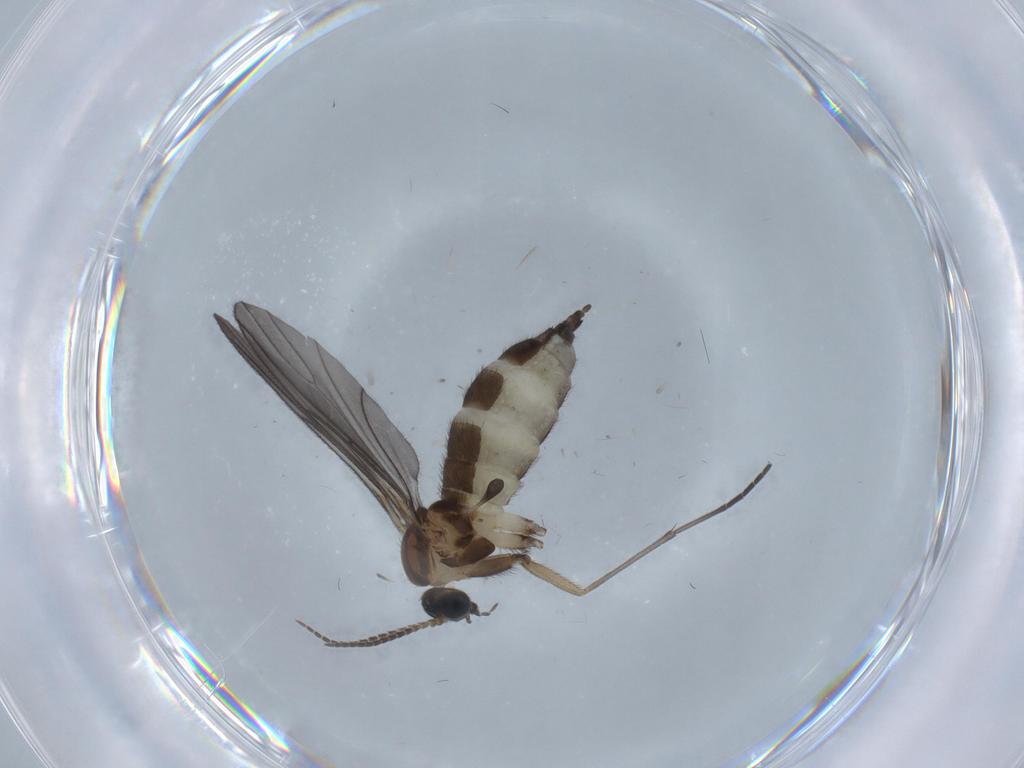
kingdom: Animalia
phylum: Arthropoda
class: Insecta
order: Diptera
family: Sciaridae
